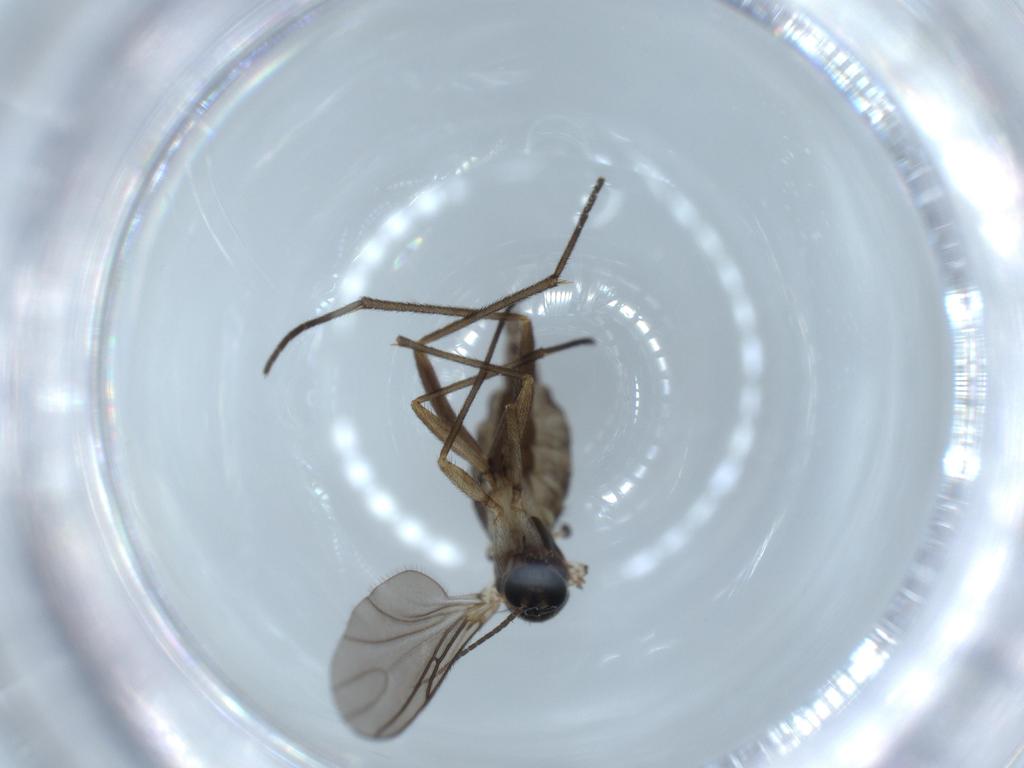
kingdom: Animalia
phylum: Arthropoda
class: Insecta
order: Diptera
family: Sciaridae
